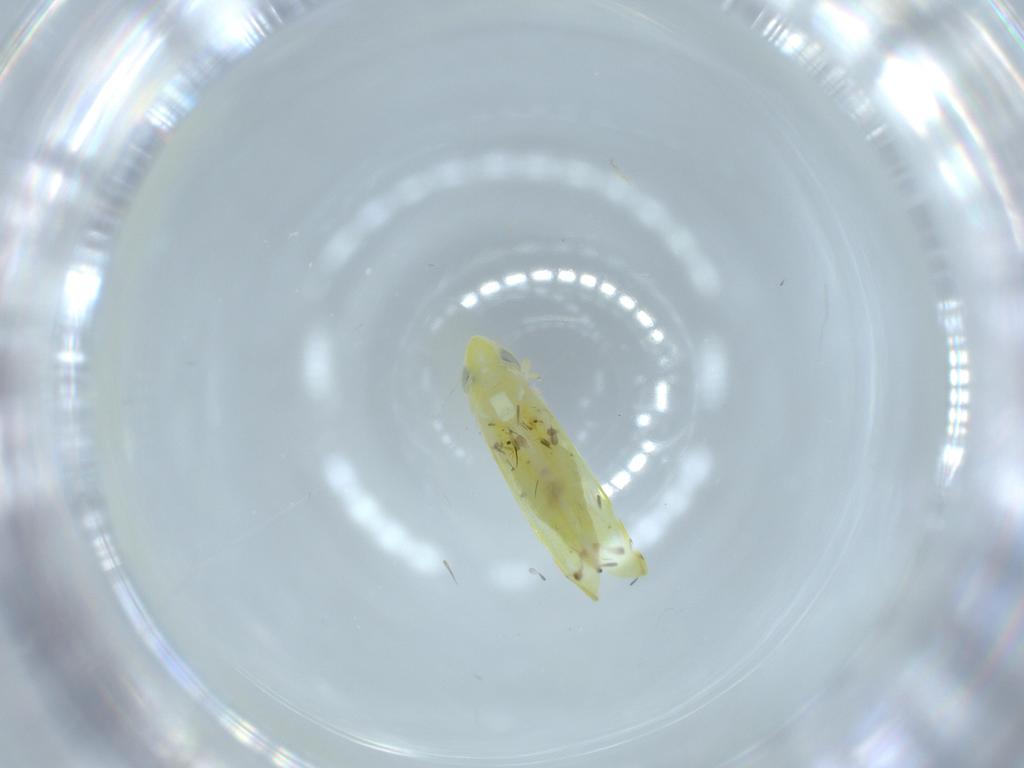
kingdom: Animalia
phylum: Arthropoda
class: Insecta
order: Hemiptera
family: Cicadellidae
